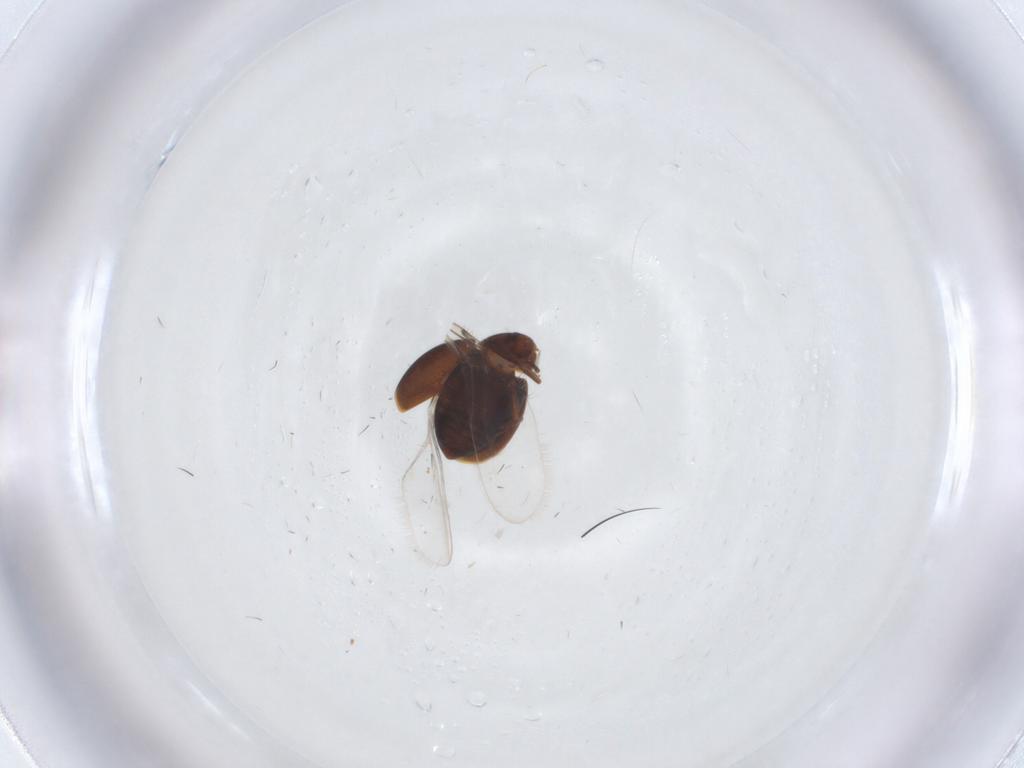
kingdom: Animalia
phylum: Arthropoda
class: Insecta
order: Coleoptera
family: Corylophidae
